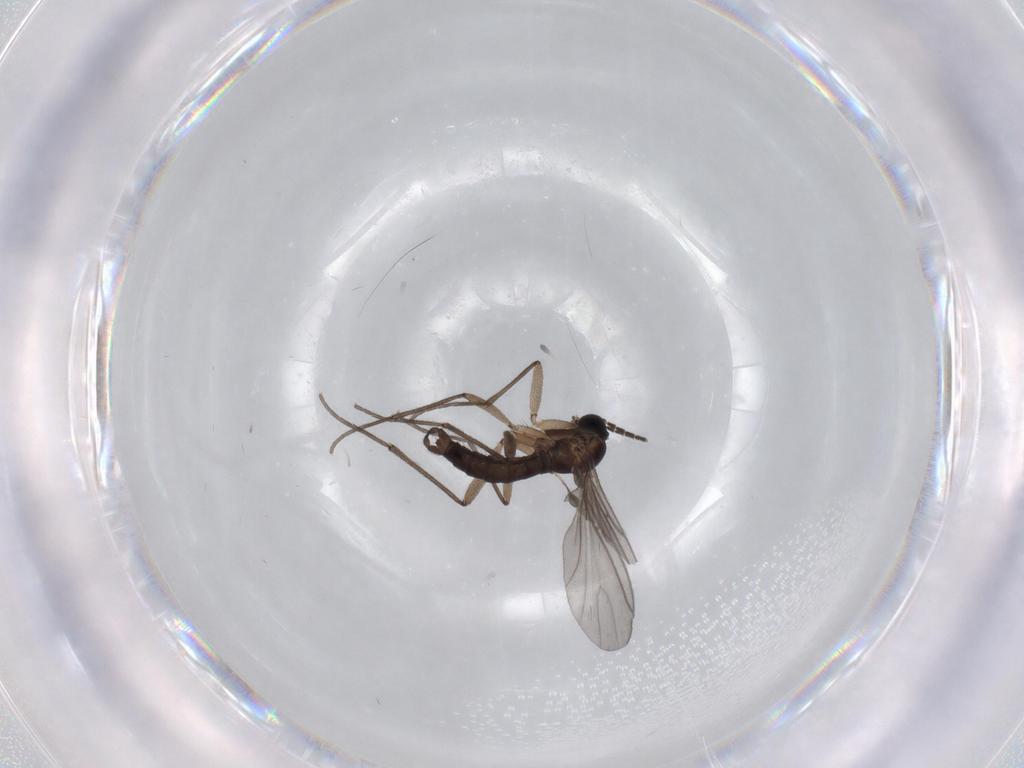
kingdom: Animalia
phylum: Arthropoda
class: Insecta
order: Diptera
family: Sciaridae
